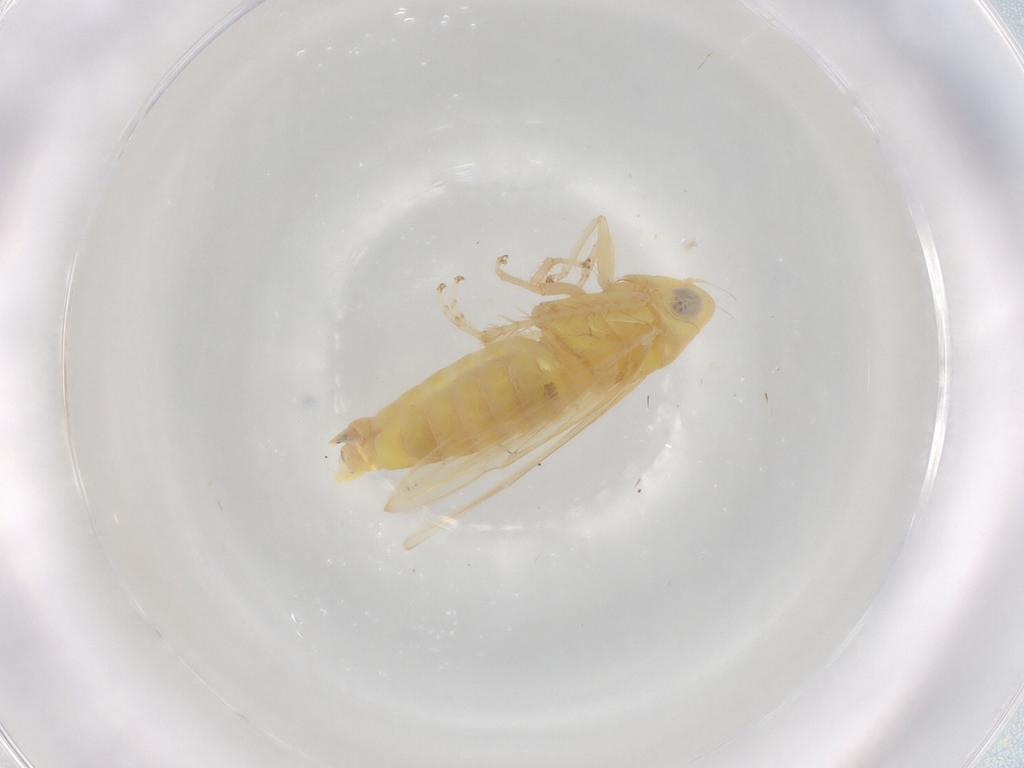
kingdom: Animalia
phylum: Arthropoda
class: Insecta
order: Hemiptera
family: Cicadellidae
